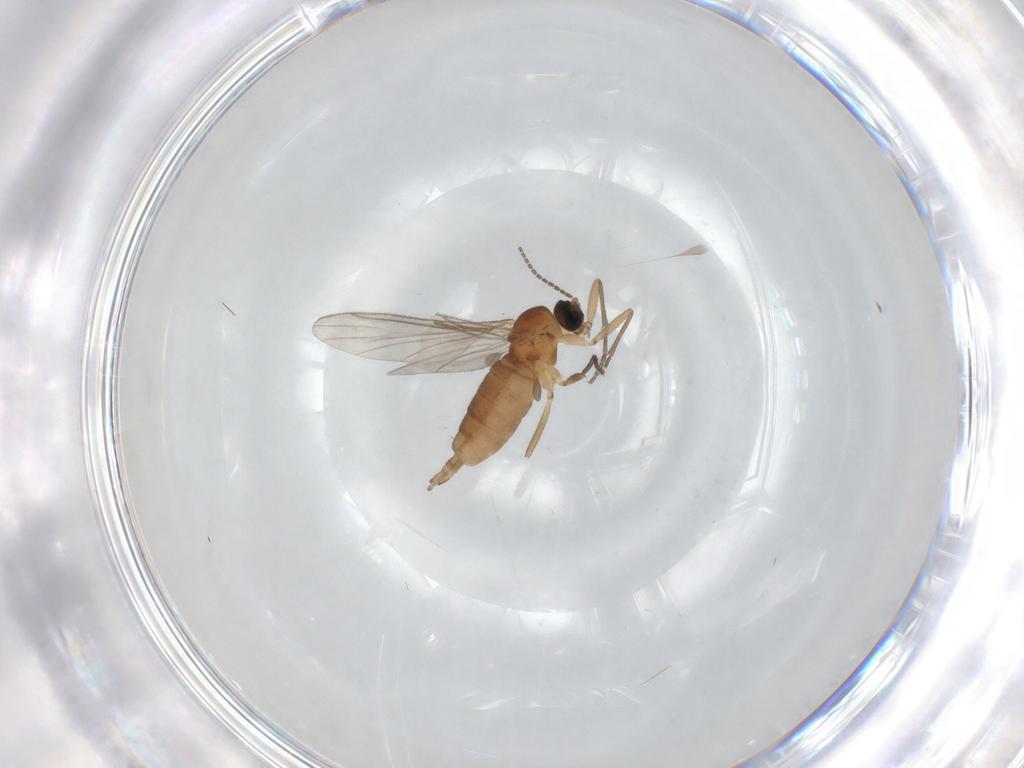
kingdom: Animalia
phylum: Arthropoda
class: Insecta
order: Diptera
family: Sciaridae
